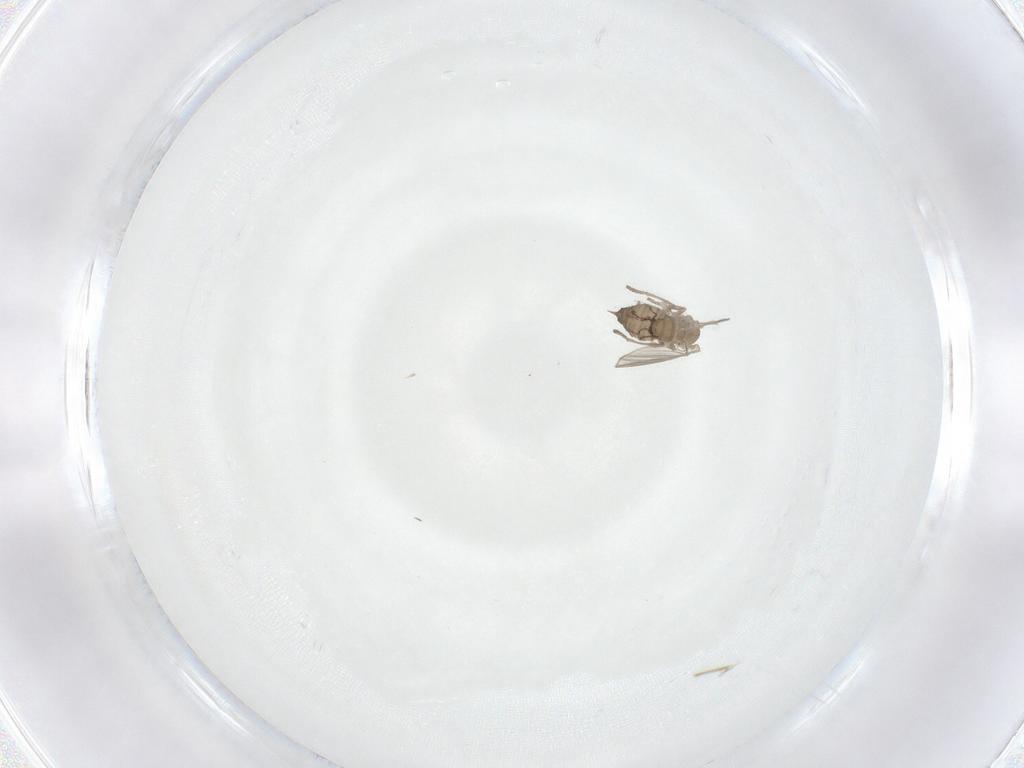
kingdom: Animalia
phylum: Arthropoda
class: Insecta
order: Diptera
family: Psychodidae
